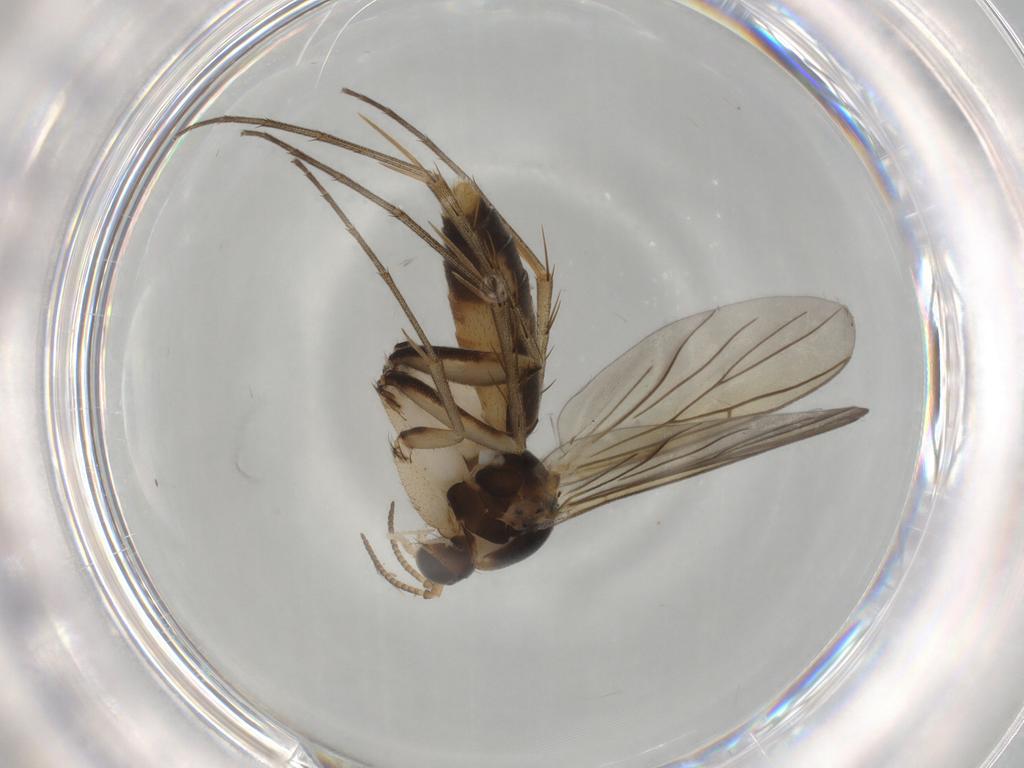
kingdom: Animalia
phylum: Arthropoda
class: Insecta
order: Diptera
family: Mycetophilidae
